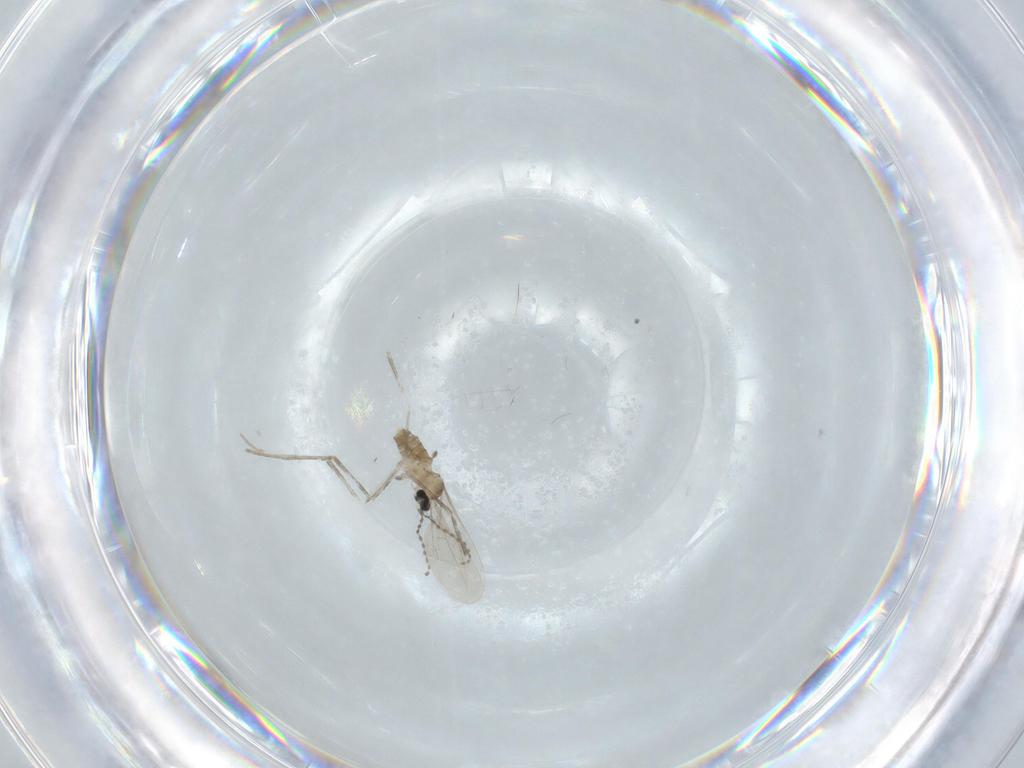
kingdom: Animalia
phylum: Arthropoda
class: Insecta
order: Diptera
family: Cecidomyiidae
